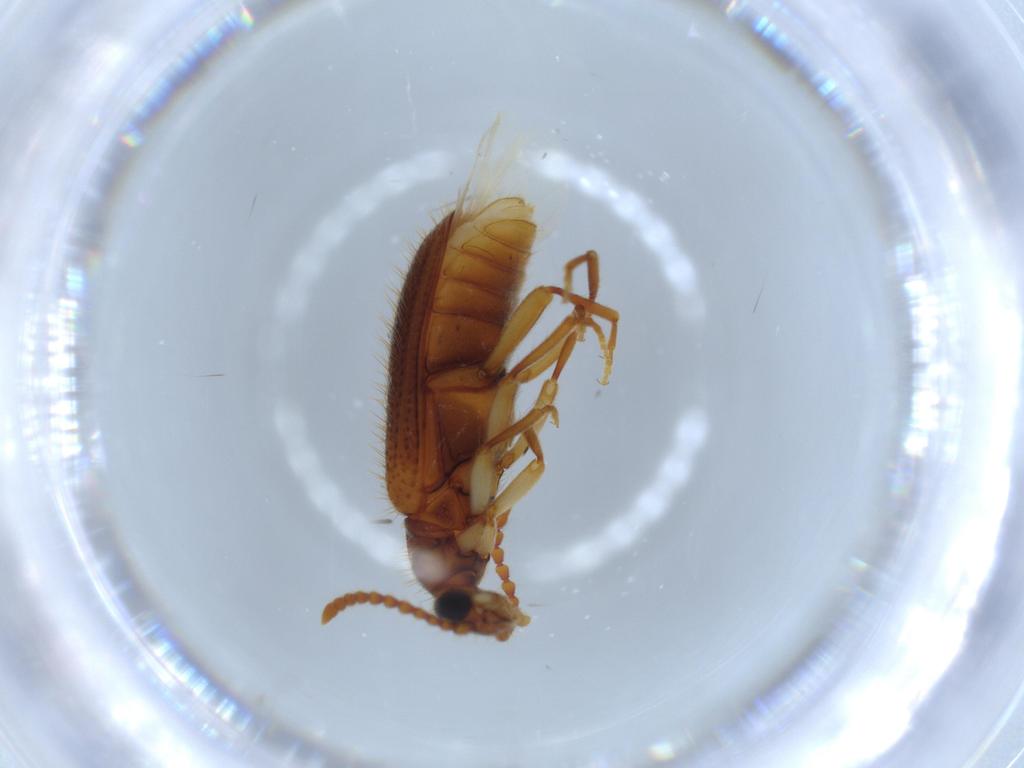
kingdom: Animalia
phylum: Arthropoda
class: Insecta
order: Coleoptera
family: Anthicidae
